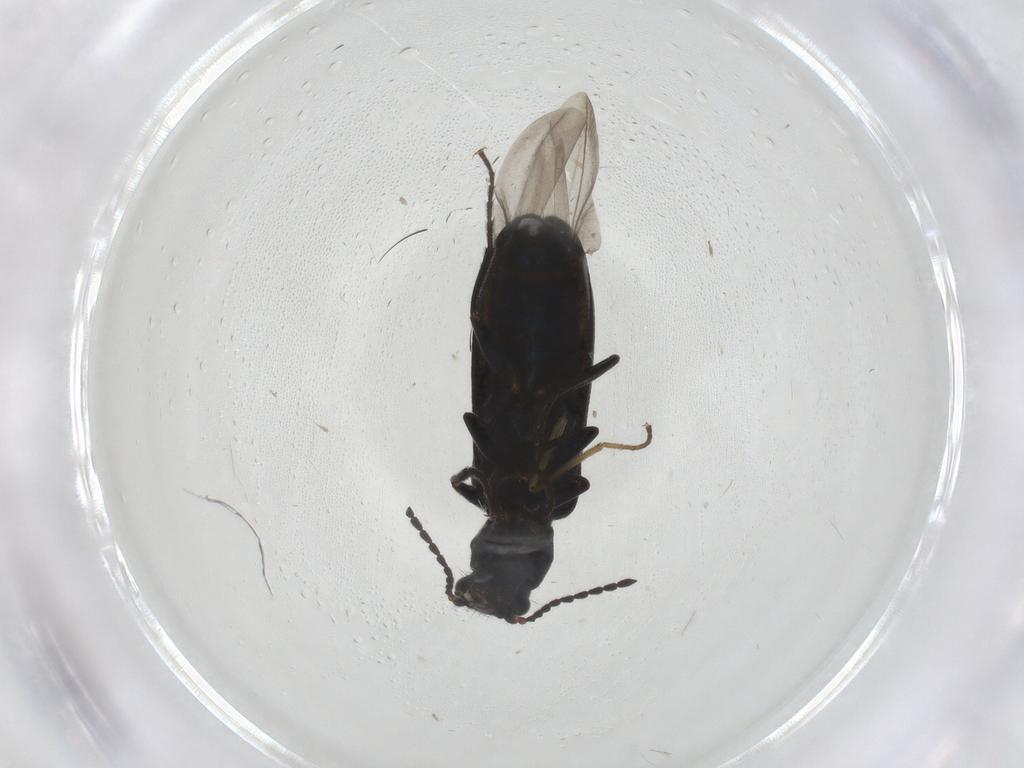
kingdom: Animalia
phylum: Arthropoda
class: Insecta
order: Coleoptera
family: Melyridae
